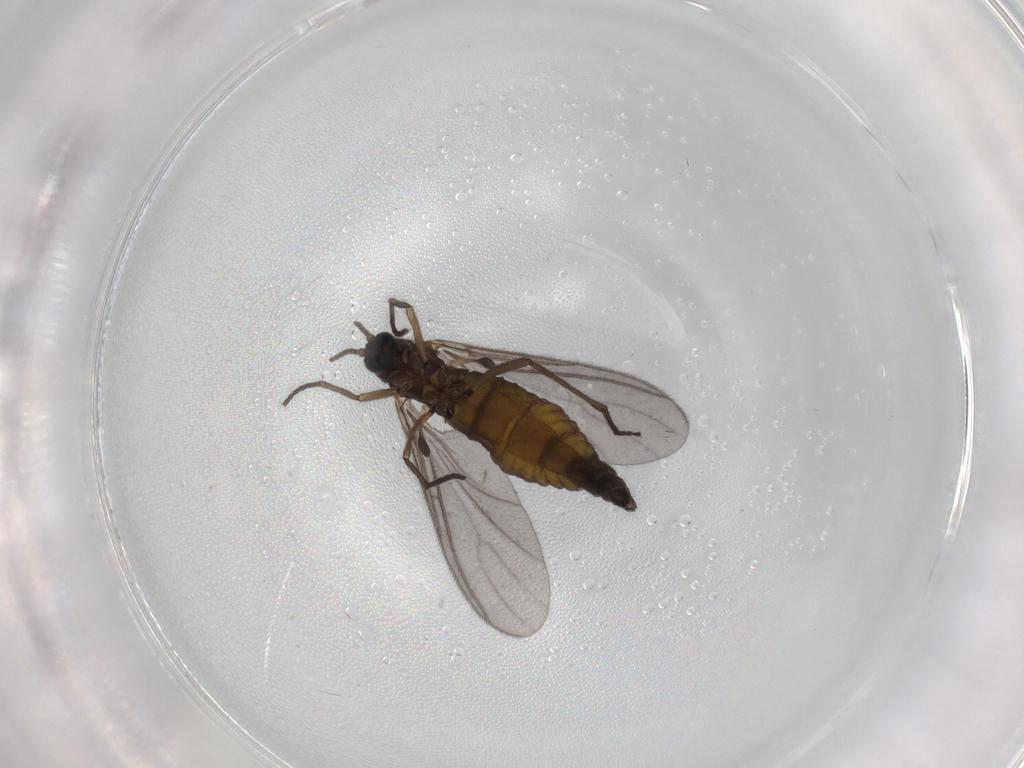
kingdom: Animalia
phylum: Arthropoda
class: Insecta
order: Diptera
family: Sciaridae
